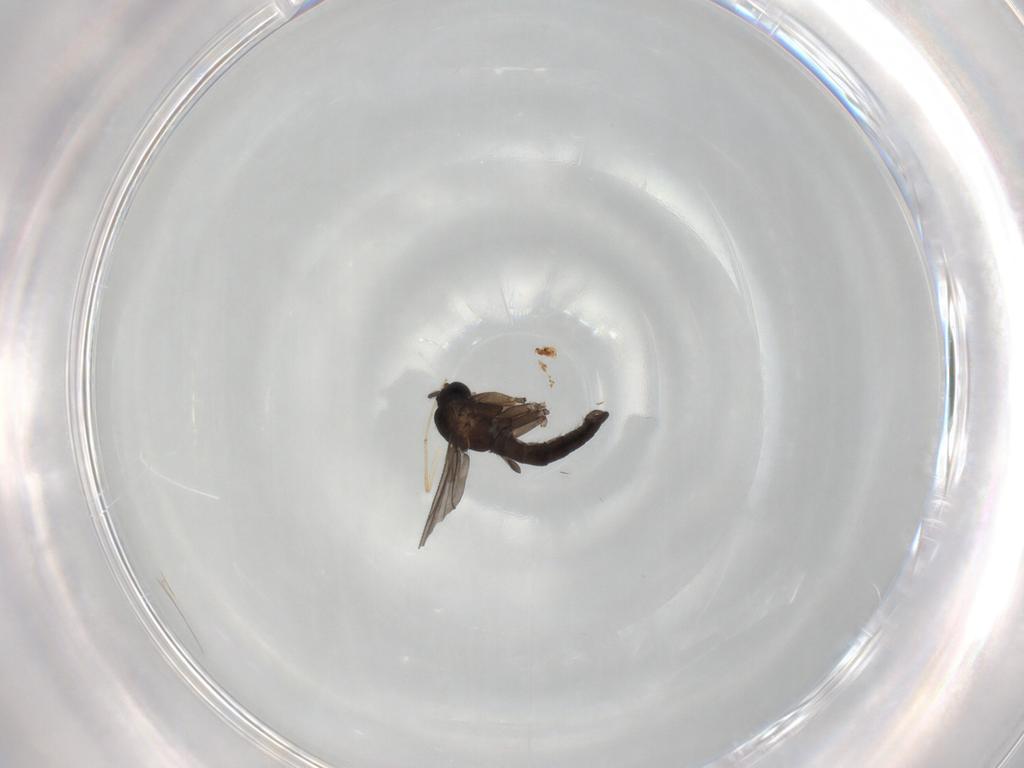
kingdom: Animalia
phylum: Arthropoda
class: Insecta
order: Diptera
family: Sciaridae
